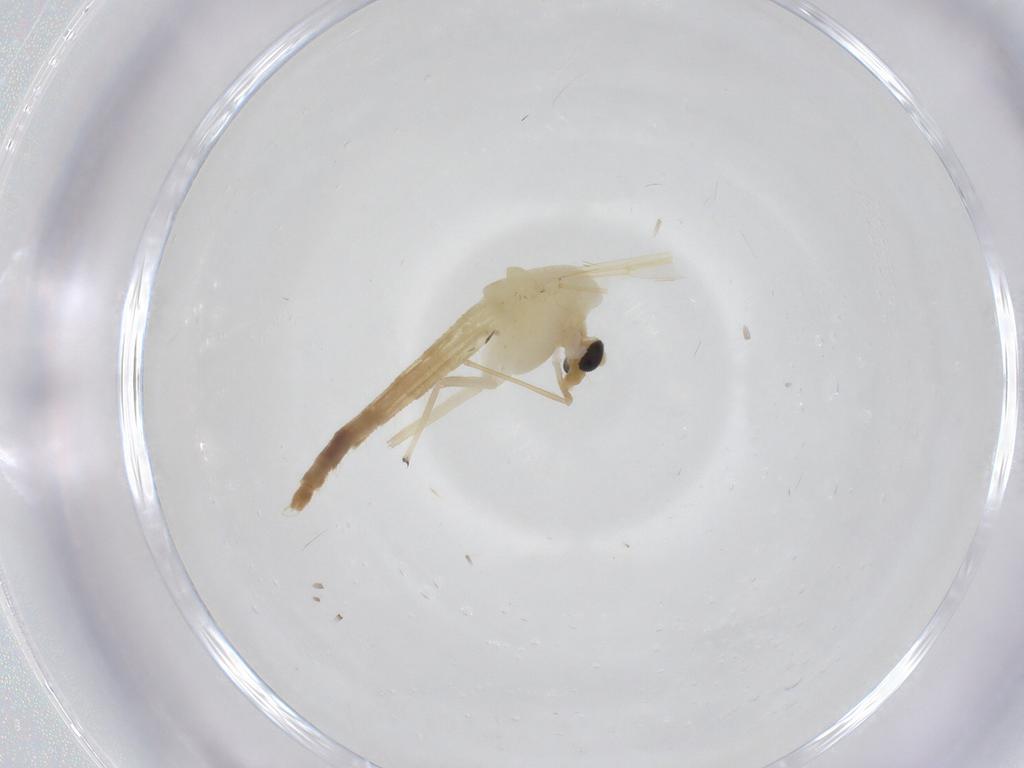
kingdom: Animalia
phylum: Arthropoda
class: Insecta
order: Diptera
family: Chironomidae
